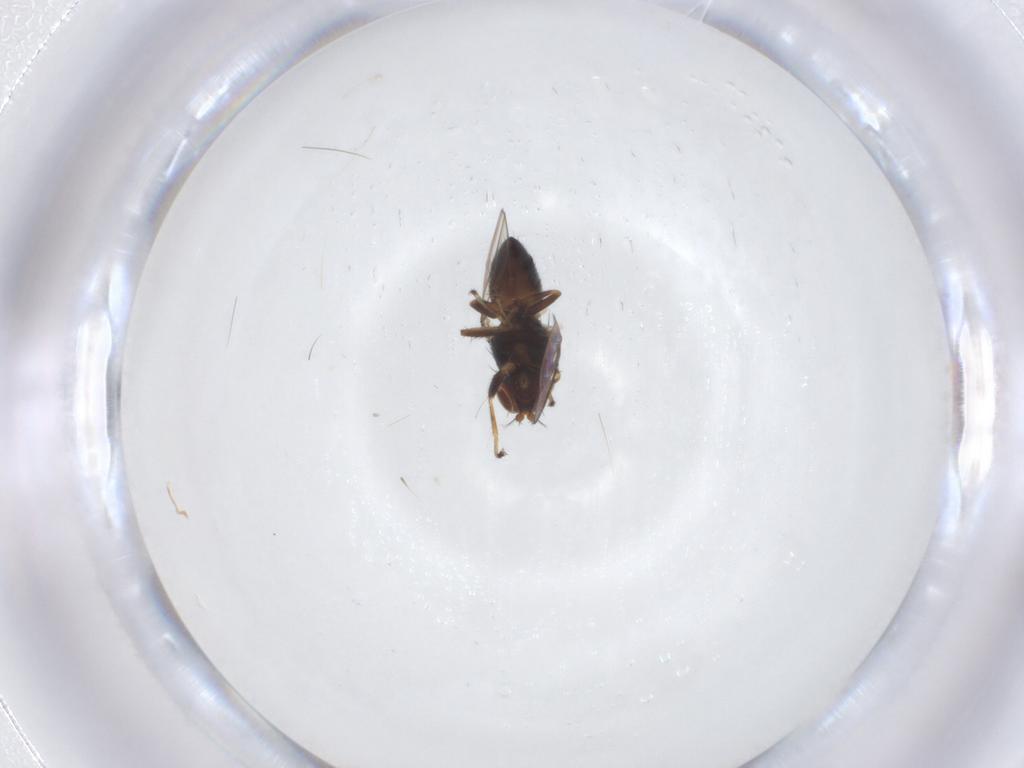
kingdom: Animalia
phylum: Arthropoda
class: Insecta
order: Diptera
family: Ephydridae
